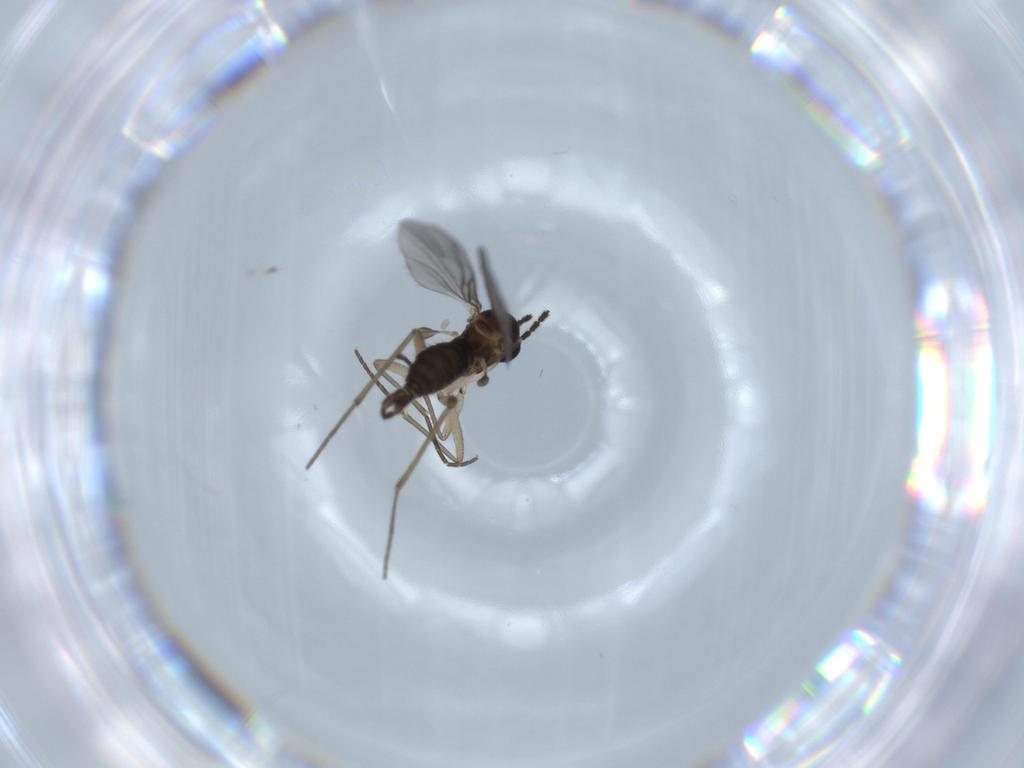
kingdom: Animalia
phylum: Arthropoda
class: Insecta
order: Diptera
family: Sciaridae
